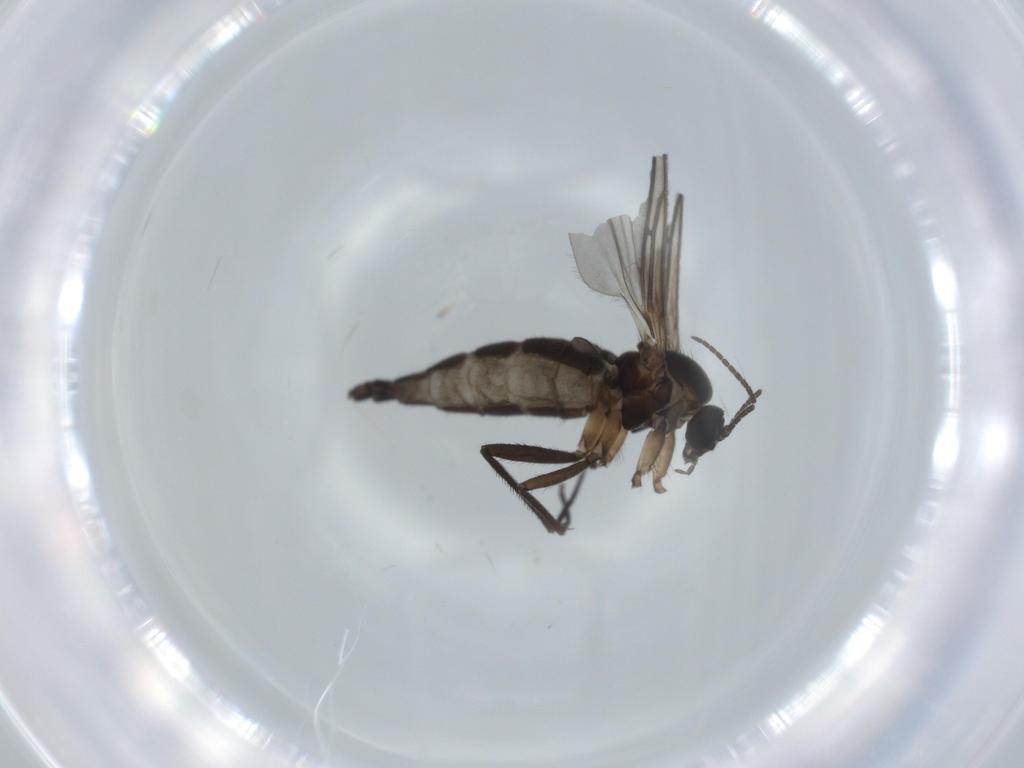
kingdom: Animalia
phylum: Arthropoda
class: Insecta
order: Diptera
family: Sciaridae
